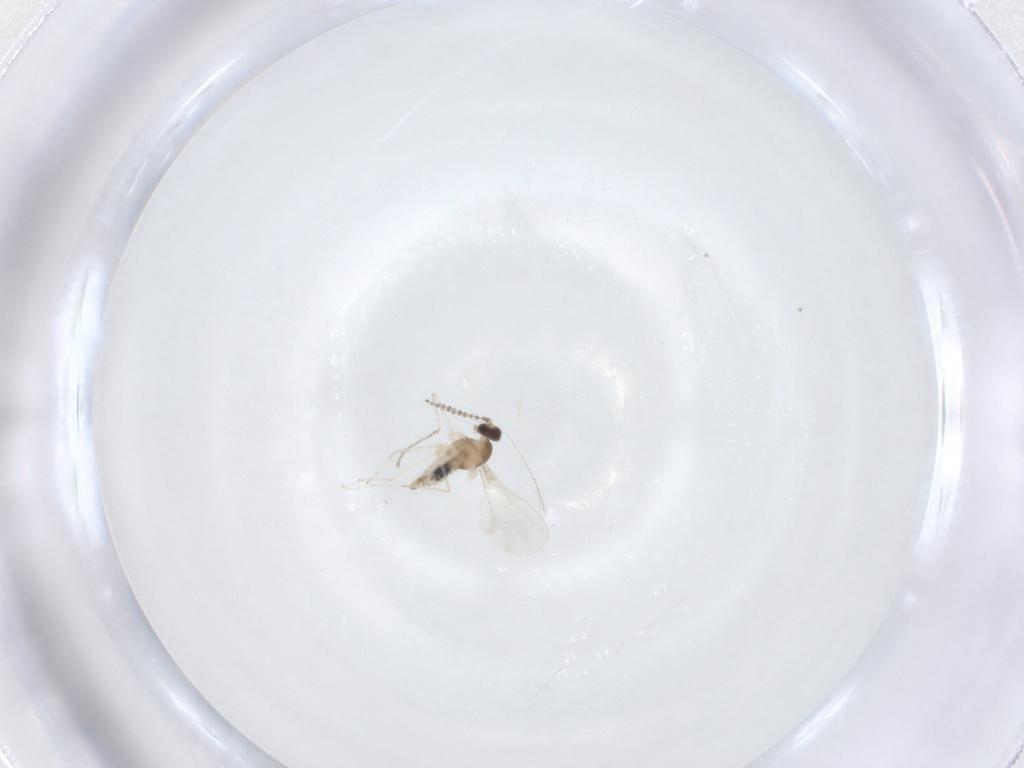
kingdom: Animalia
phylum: Arthropoda
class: Insecta
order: Diptera
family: Cecidomyiidae
